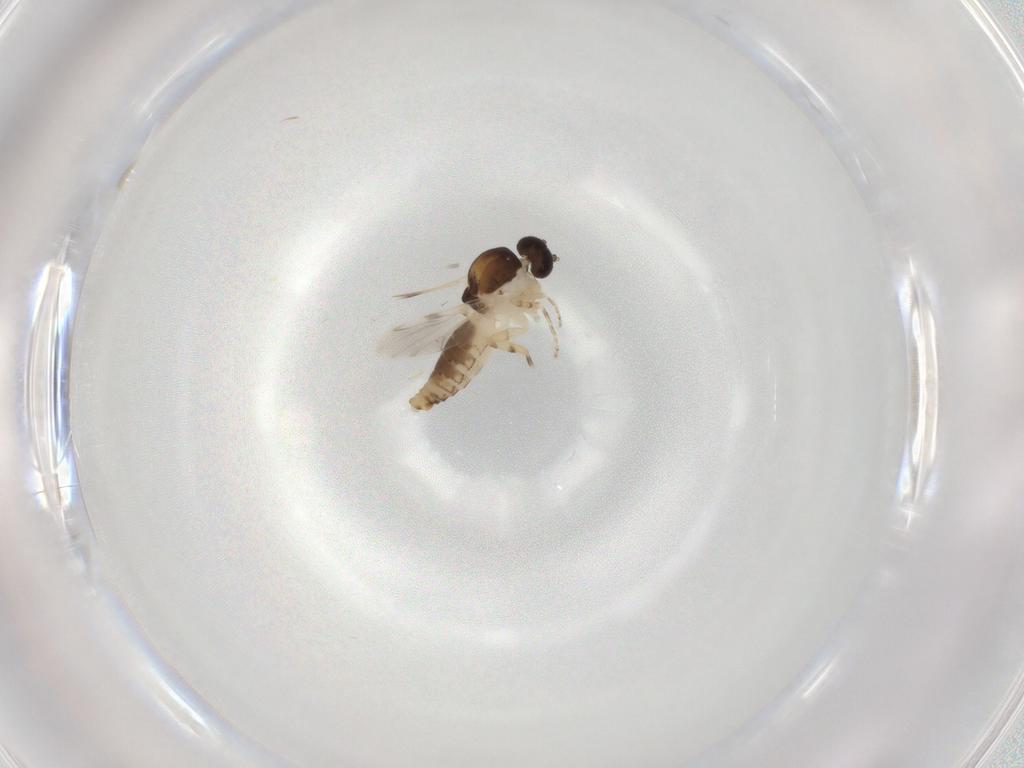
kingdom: Animalia
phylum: Arthropoda
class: Insecta
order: Diptera
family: Ceratopogonidae
